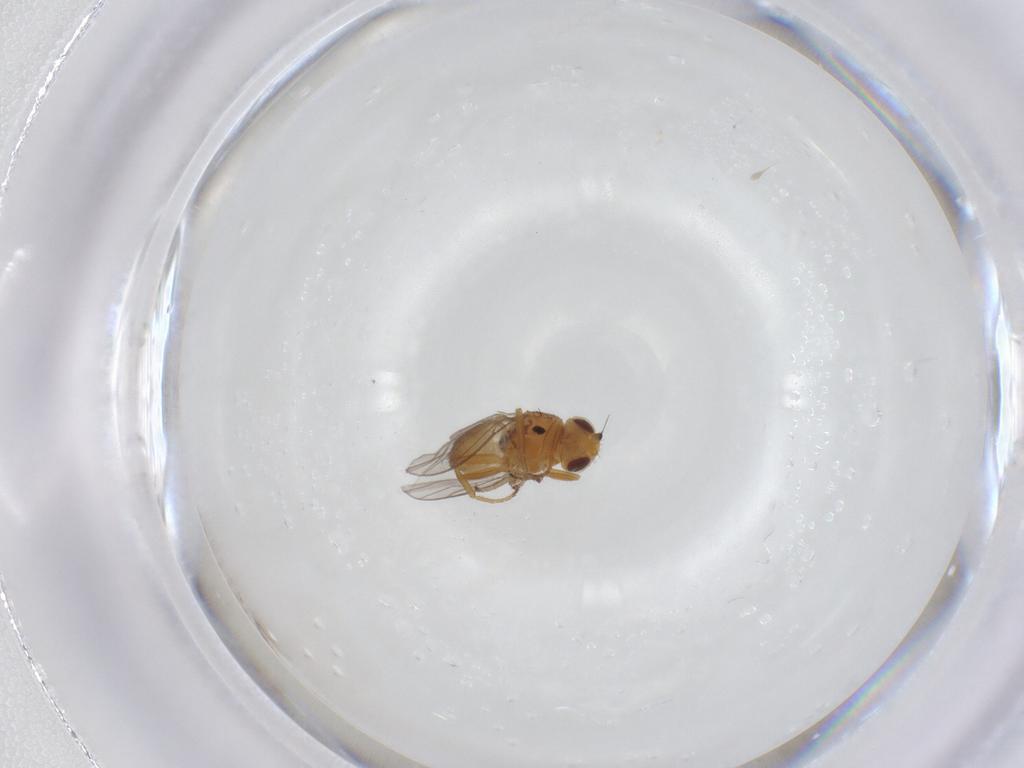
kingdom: Animalia
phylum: Arthropoda
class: Insecta
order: Diptera
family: Chloropidae
